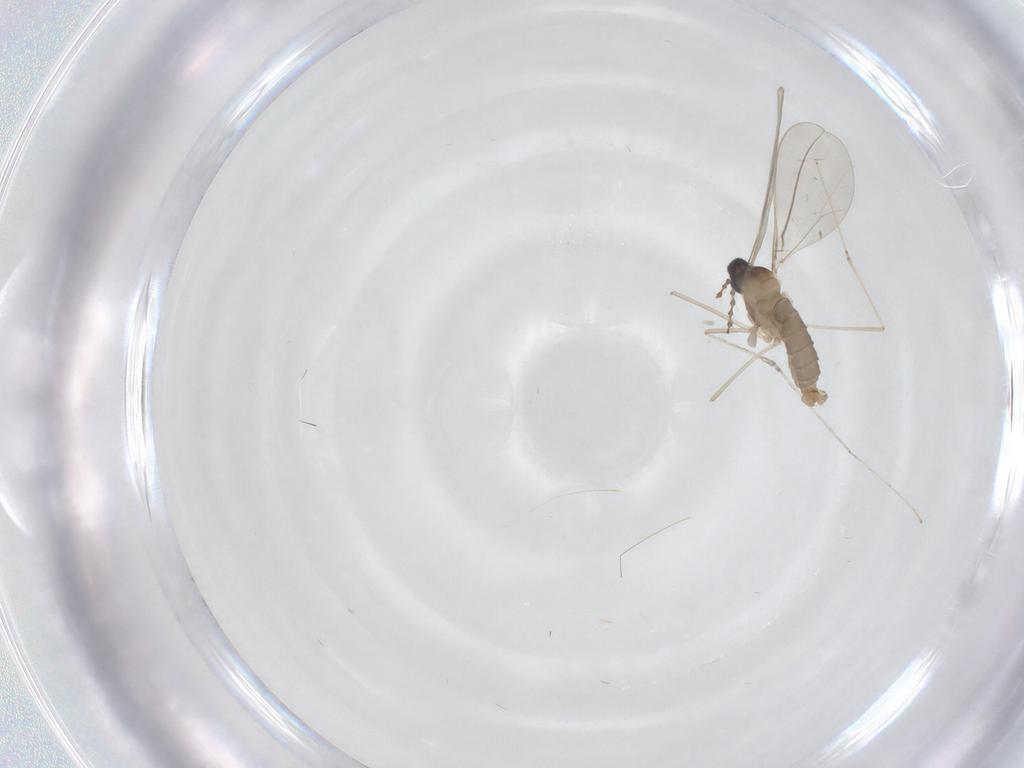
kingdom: Animalia
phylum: Arthropoda
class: Insecta
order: Diptera
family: Cecidomyiidae
